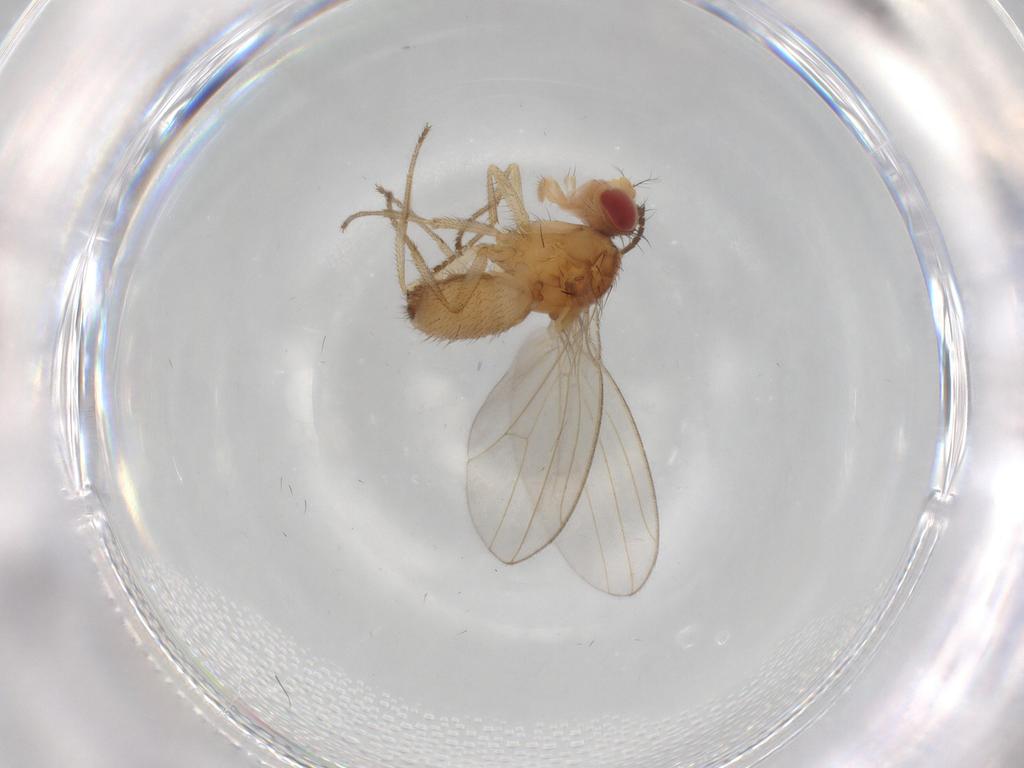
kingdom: Animalia
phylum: Arthropoda
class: Insecta
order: Diptera
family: Drosophilidae
